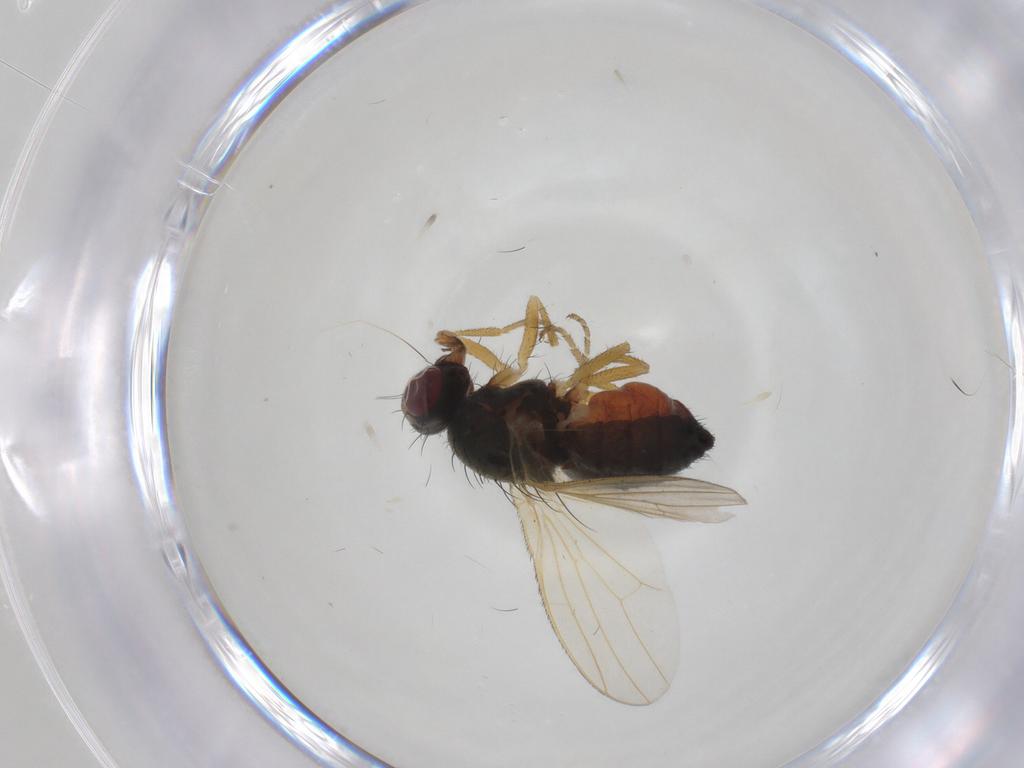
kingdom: Animalia
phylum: Arthropoda
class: Insecta
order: Diptera
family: Heleomyzidae
